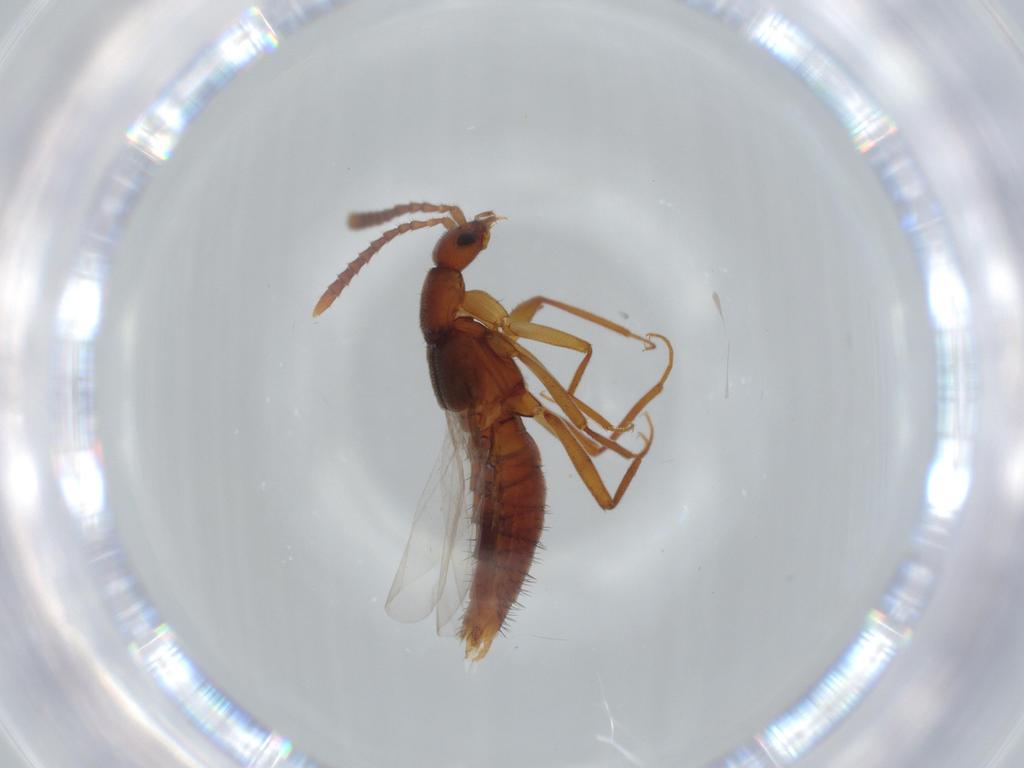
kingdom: Animalia
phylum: Arthropoda
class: Insecta
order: Coleoptera
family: Staphylinidae
